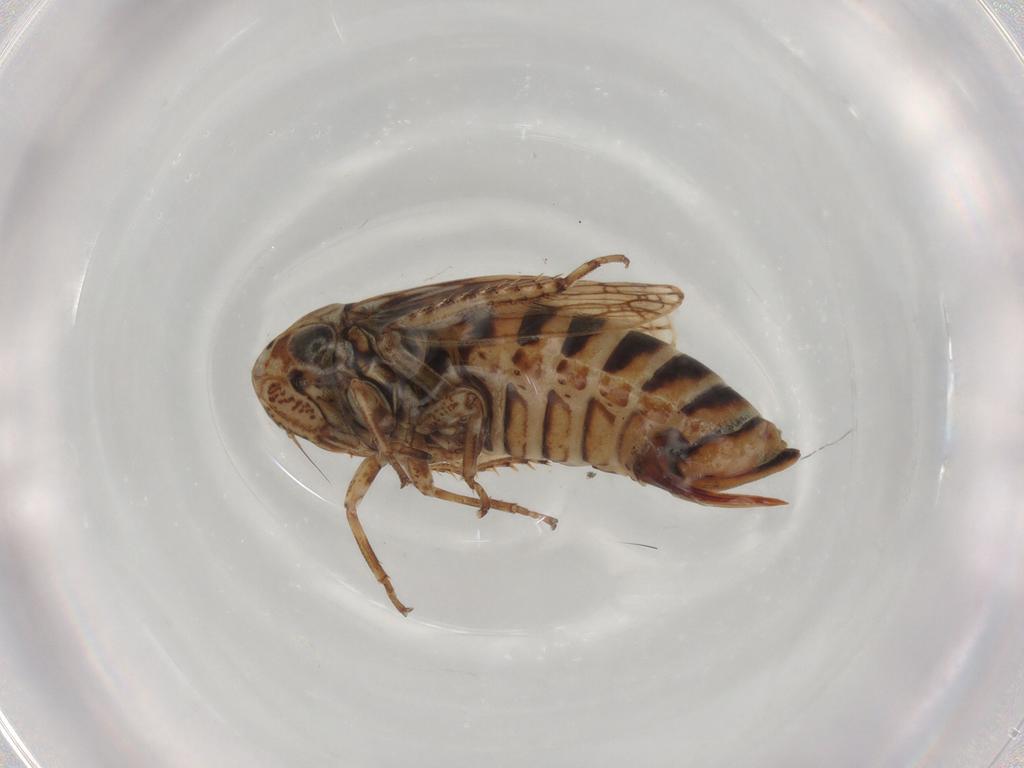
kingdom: Animalia
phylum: Arthropoda
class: Insecta
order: Hemiptera
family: Cicadellidae
